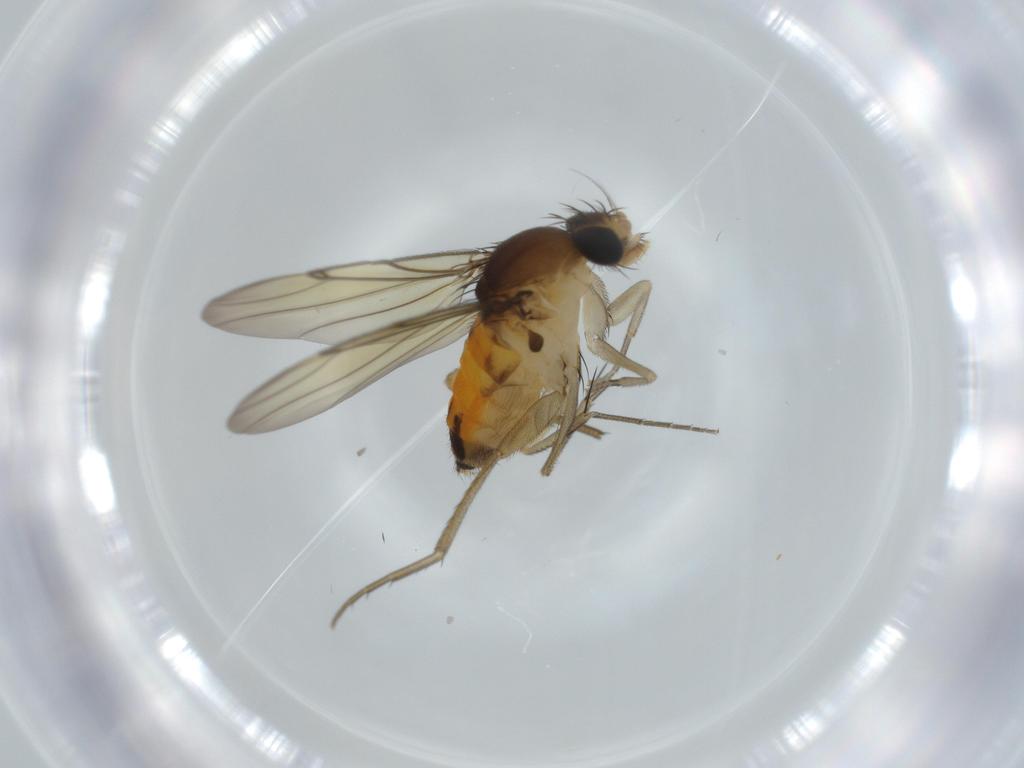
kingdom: Animalia
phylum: Arthropoda
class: Insecta
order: Diptera
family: Phoridae
